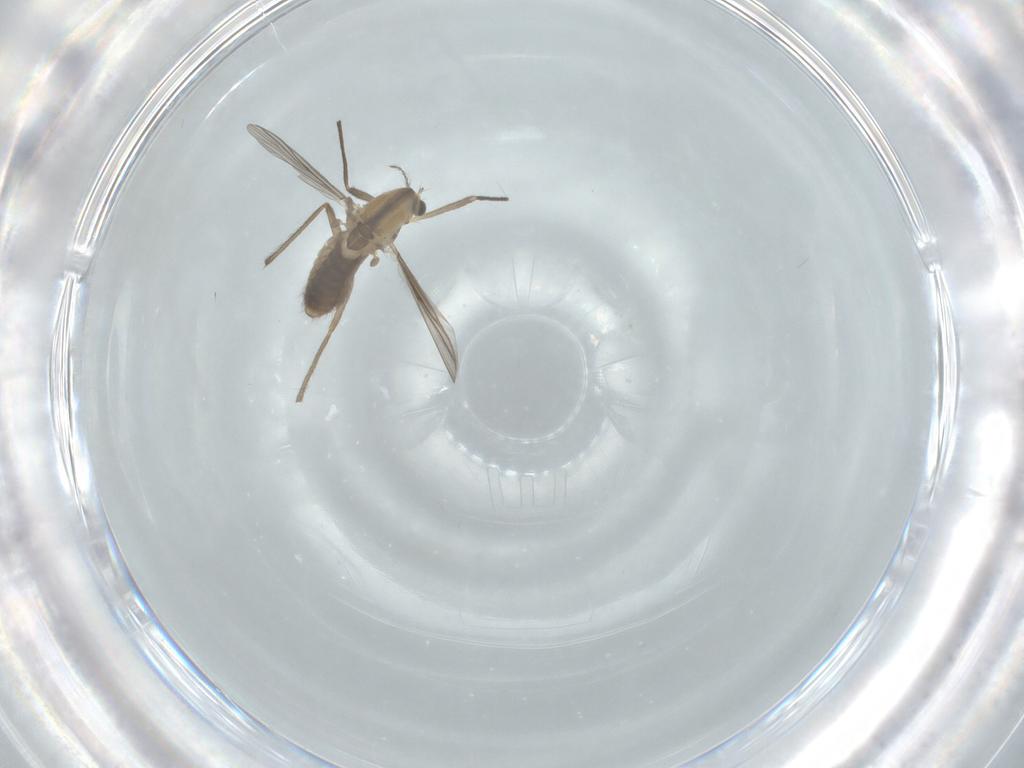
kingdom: Animalia
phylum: Arthropoda
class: Insecta
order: Diptera
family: Chironomidae
